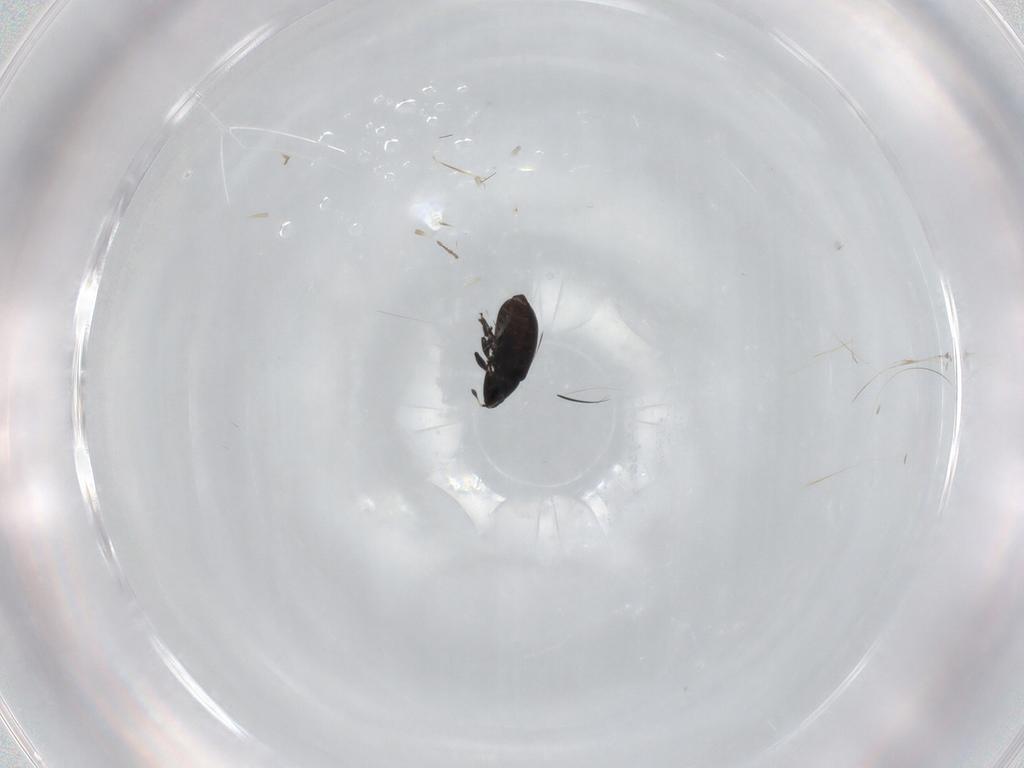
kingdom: Animalia
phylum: Arthropoda
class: Insecta
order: Coleoptera
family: Curculionidae
